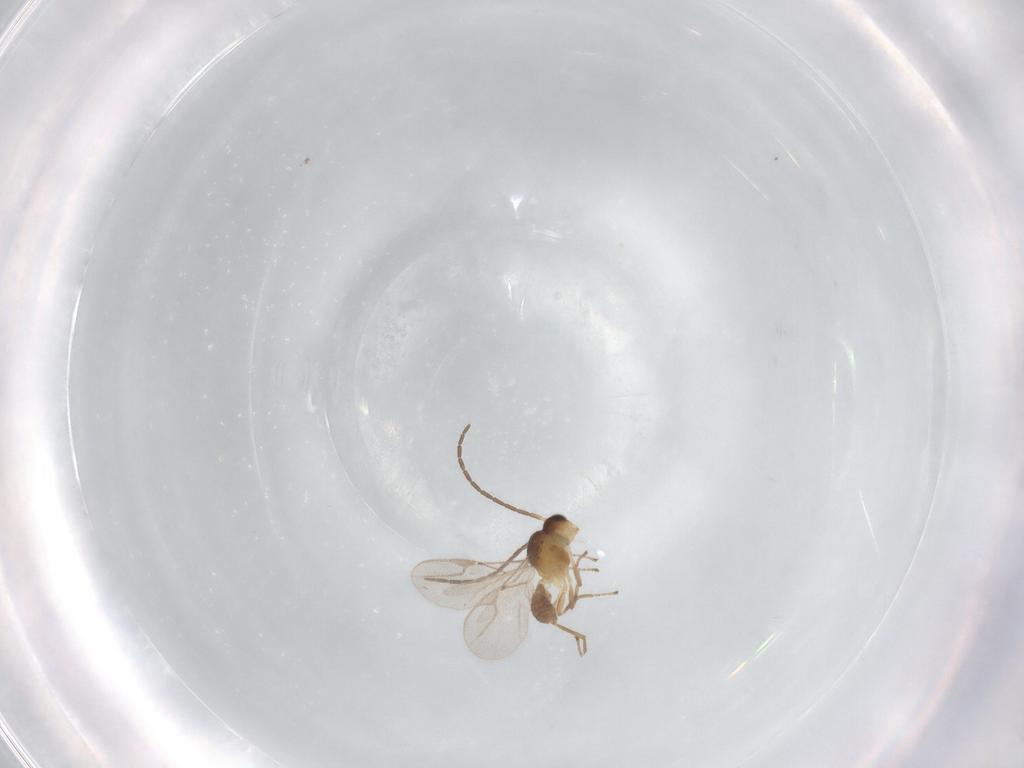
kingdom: Animalia
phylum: Arthropoda
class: Insecta
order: Hymenoptera
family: Braconidae
